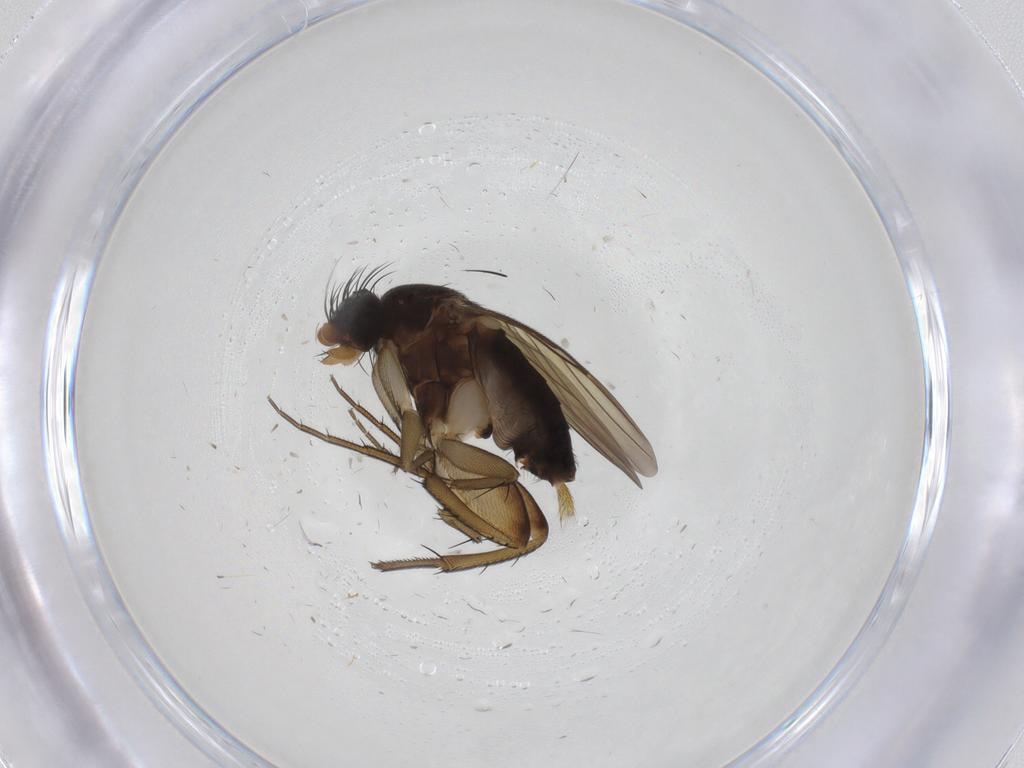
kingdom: Animalia
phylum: Arthropoda
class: Insecta
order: Diptera
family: Phoridae
